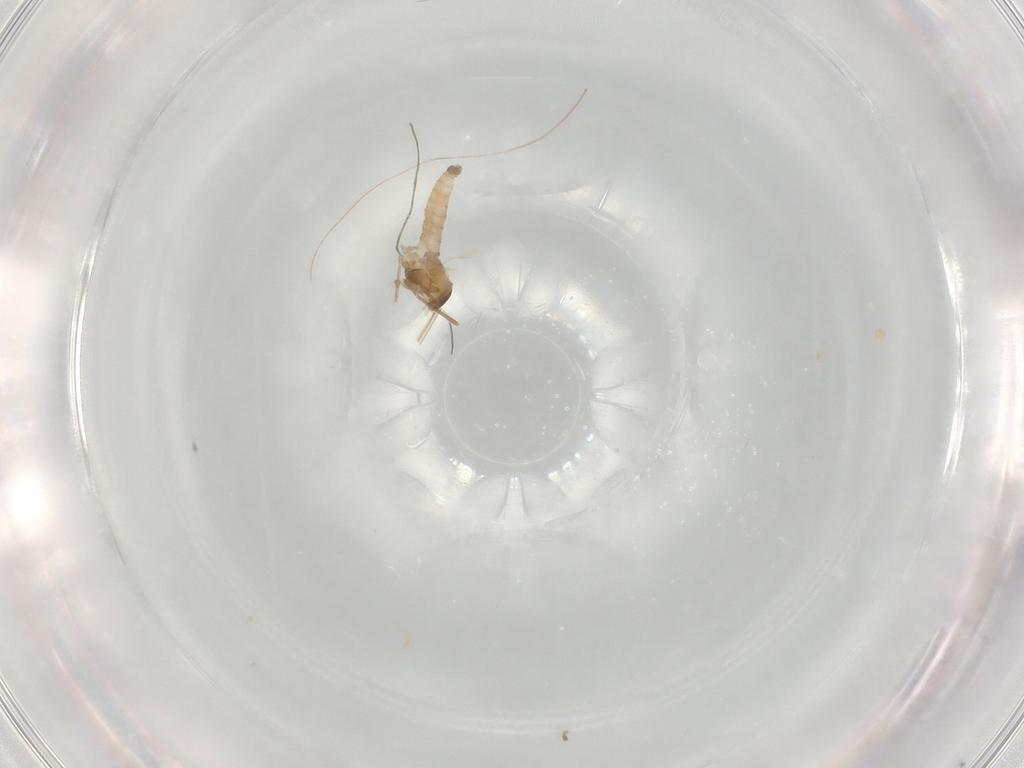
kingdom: Animalia
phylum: Arthropoda
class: Insecta
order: Diptera
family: Cecidomyiidae
